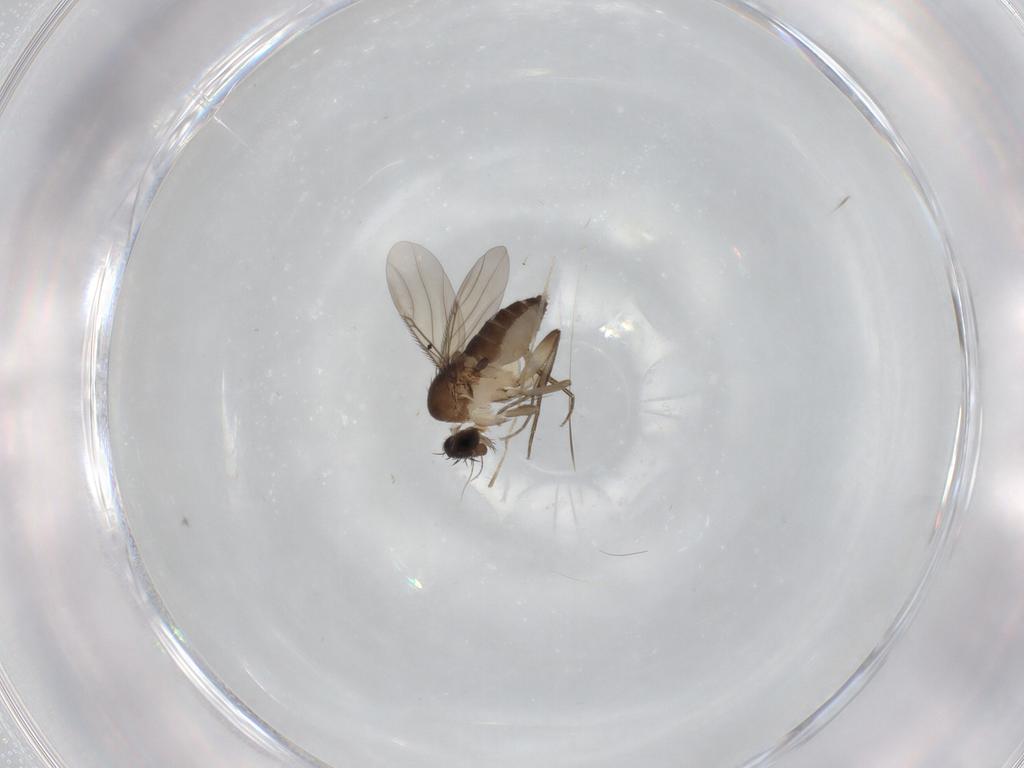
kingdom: Animalia
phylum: Arthropoda
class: Insecta
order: Diptera
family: Phoridae
